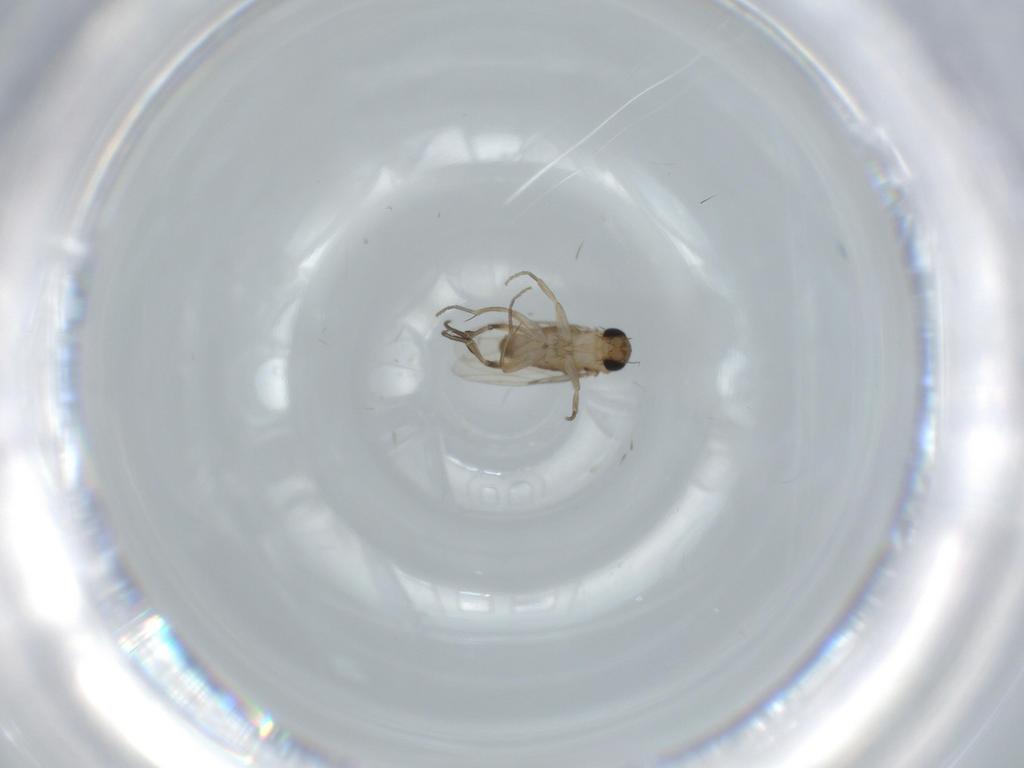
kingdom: Animalia
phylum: Arthropoda
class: Insecta
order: Diptera
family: Phoridae
